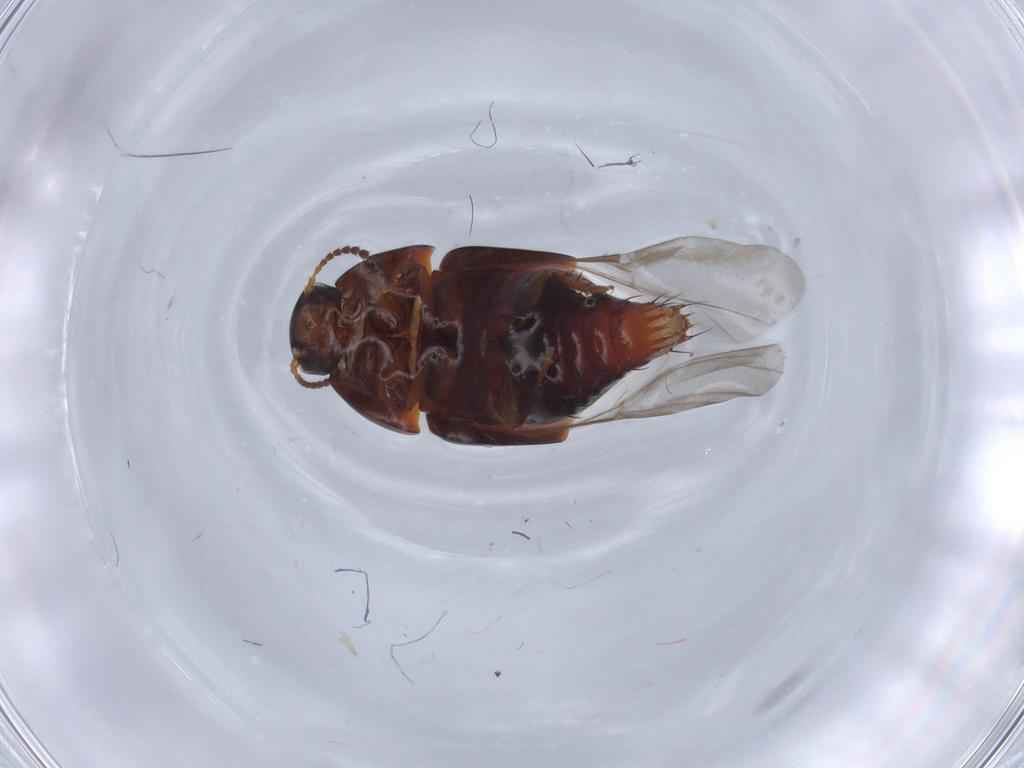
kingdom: Animalia
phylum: Arthropoda
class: Insecta
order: Coleoptera
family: Staphylinidae
